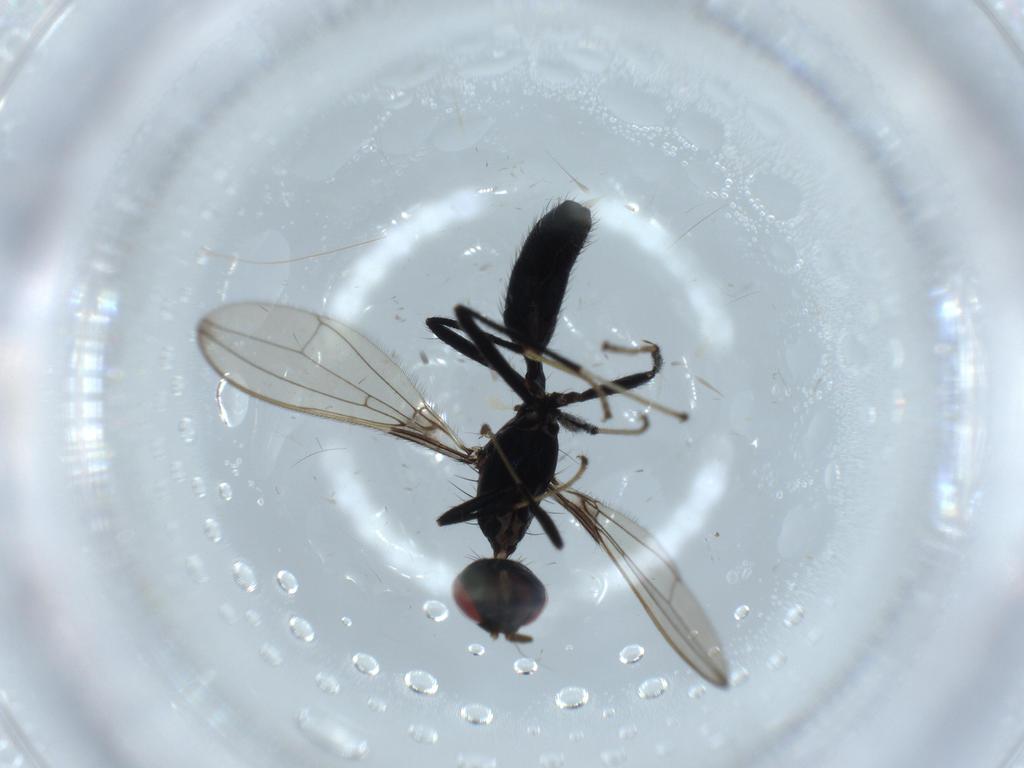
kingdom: Animalia
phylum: Arthropoda
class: Insecta
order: Diptera
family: Richardiidae
